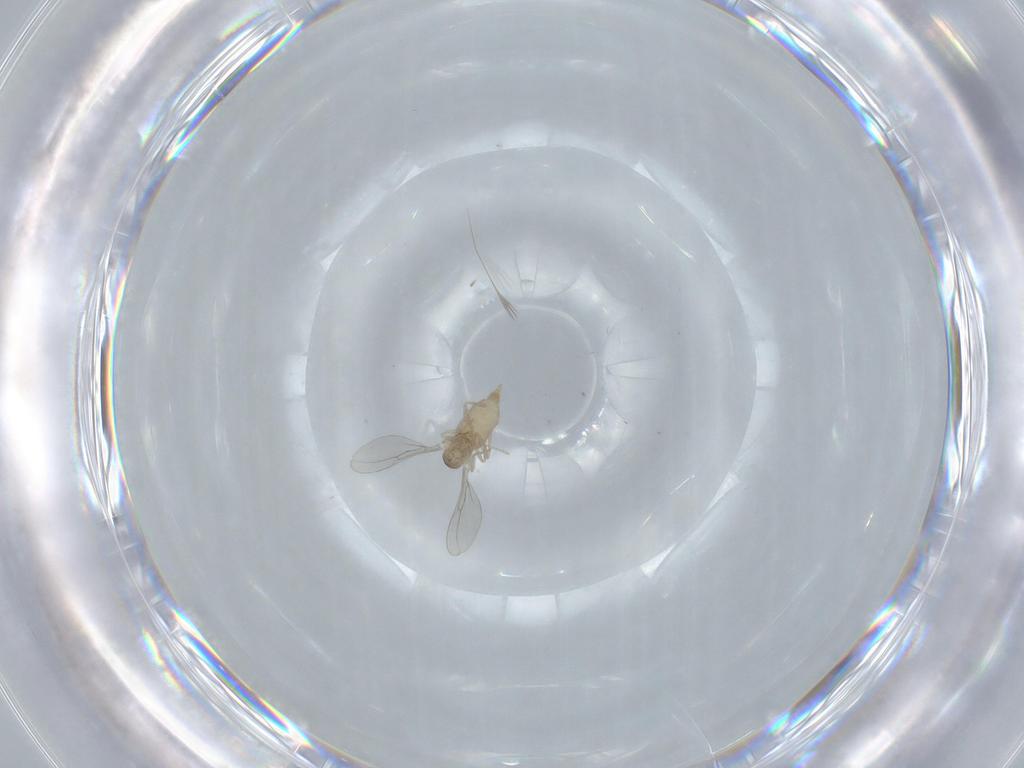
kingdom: Animalia
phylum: Arthropoda
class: Insecta
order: Diptera
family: Cecidomyiidae
